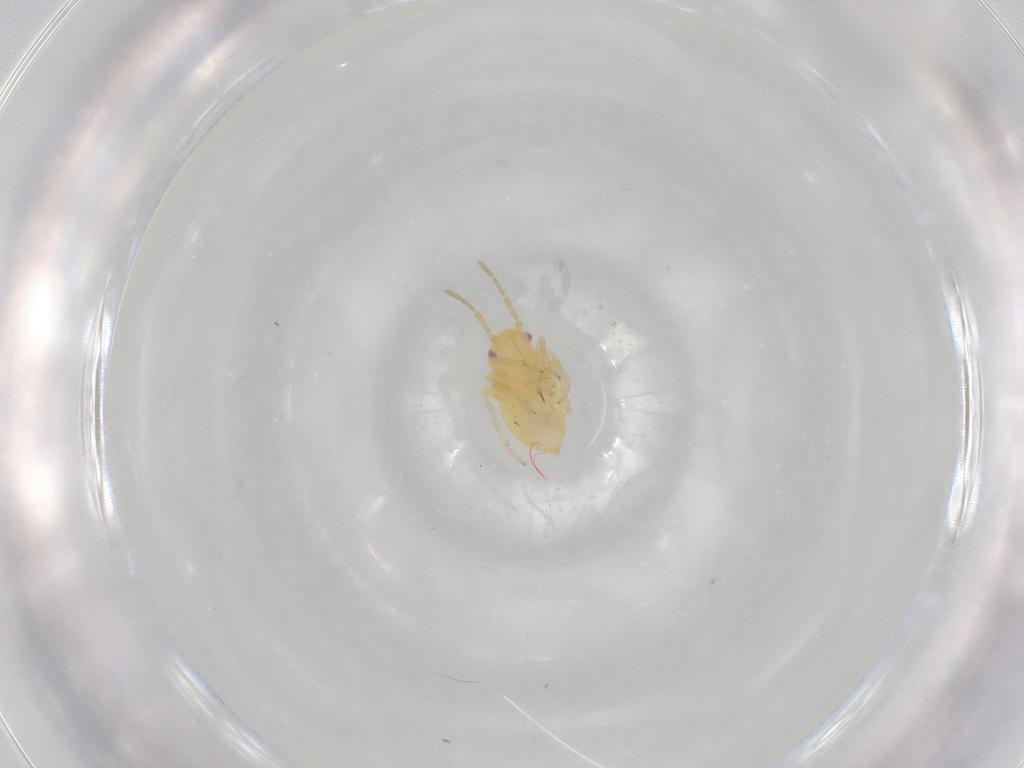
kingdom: Animalia
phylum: Arthropoda
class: Insecta
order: Hemiptera
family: Miridae
